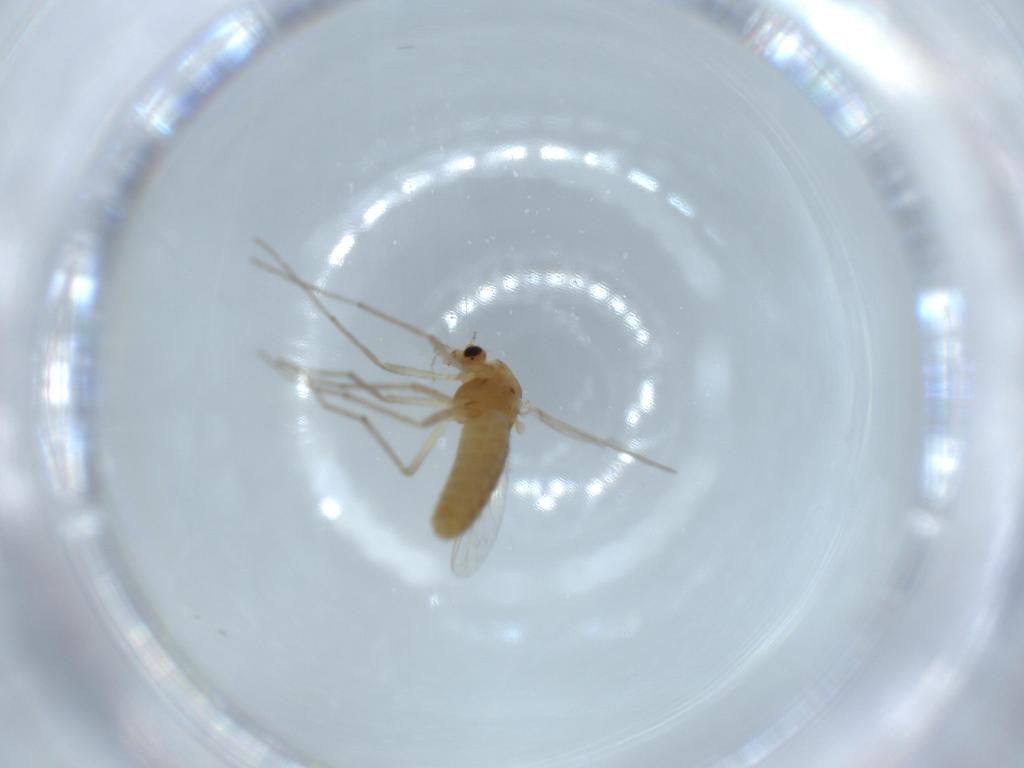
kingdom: Animalia
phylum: Arthropoda
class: Insecta
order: Diptera
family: Chironomidae
